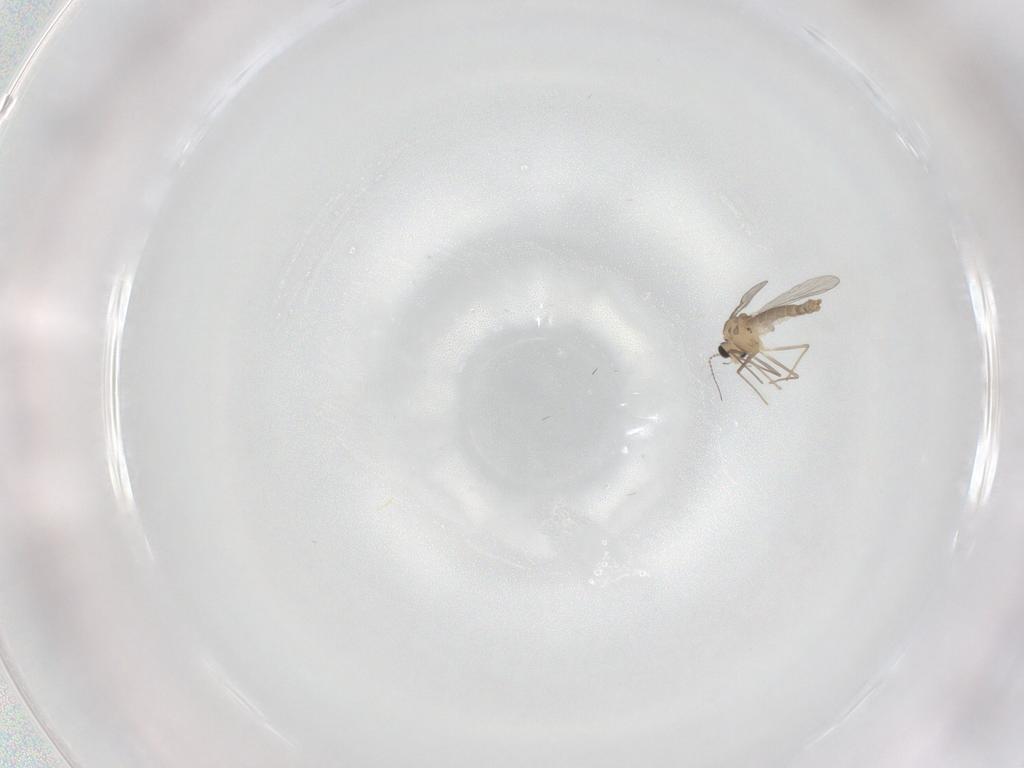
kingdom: Animalia
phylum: Arthropoda
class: Insecta
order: Diptera
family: Chironomidae
